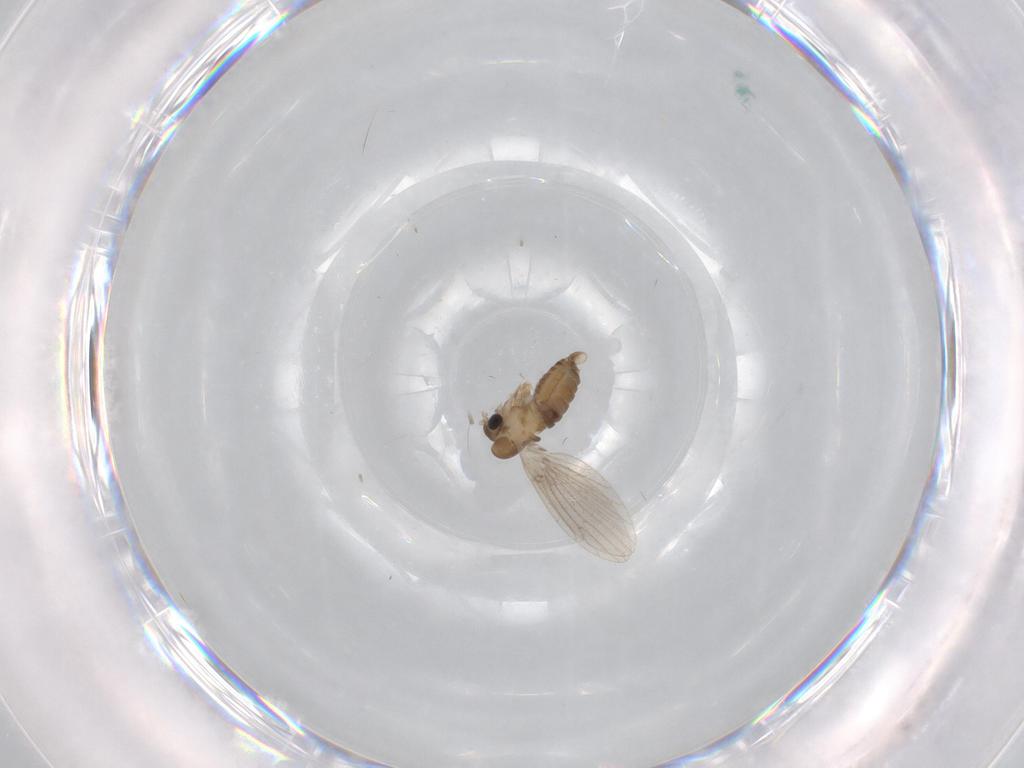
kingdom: Animalia
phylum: Arthropoda
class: Insecta
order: Diptera
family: Psychodidae
